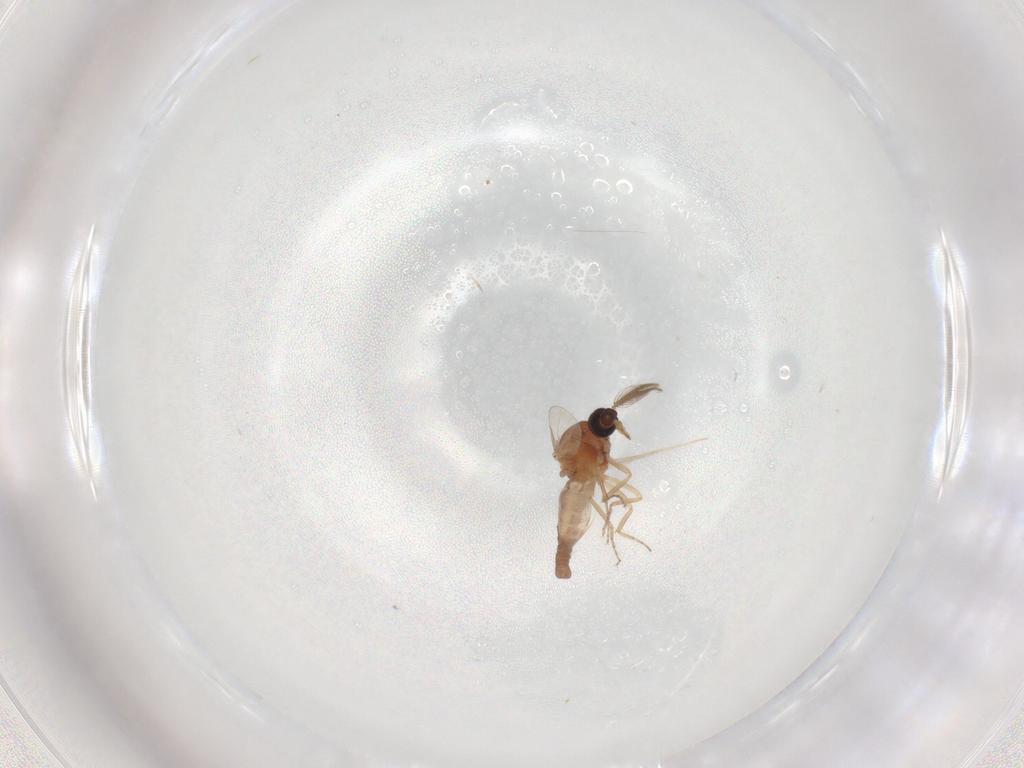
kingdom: Animalia
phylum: Arthropoda
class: Insecta
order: Diptera
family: Ceratopogonidae
